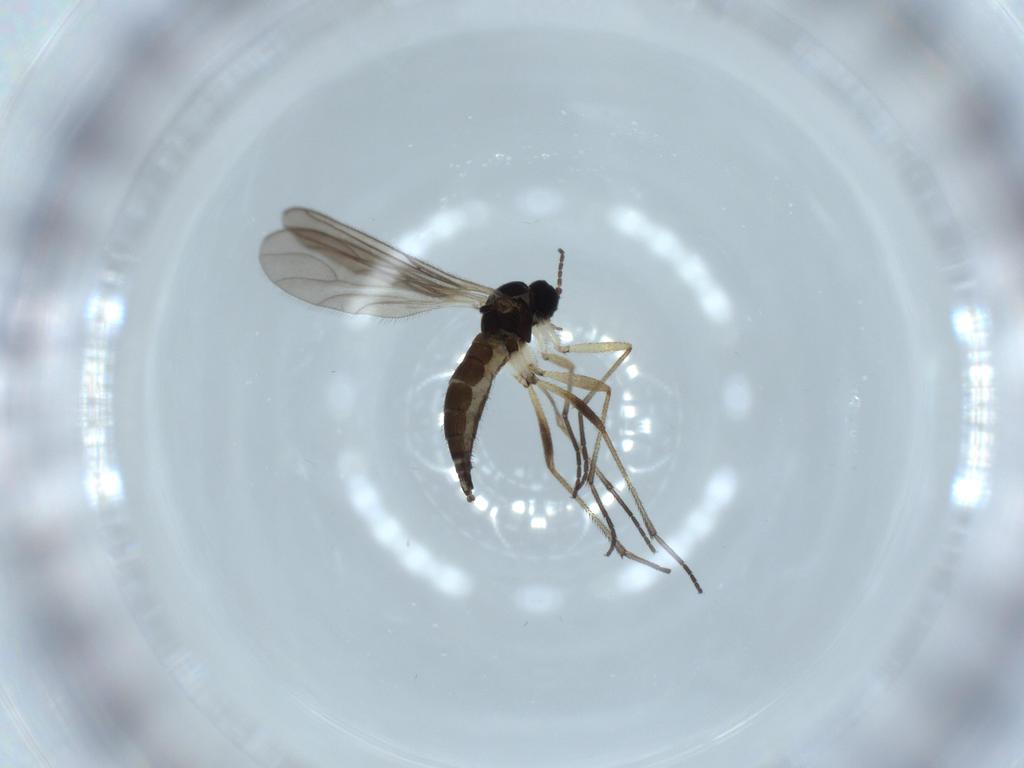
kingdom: Animalia
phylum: Arthropoda
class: Insecta
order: Diptera
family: Sciaridae
